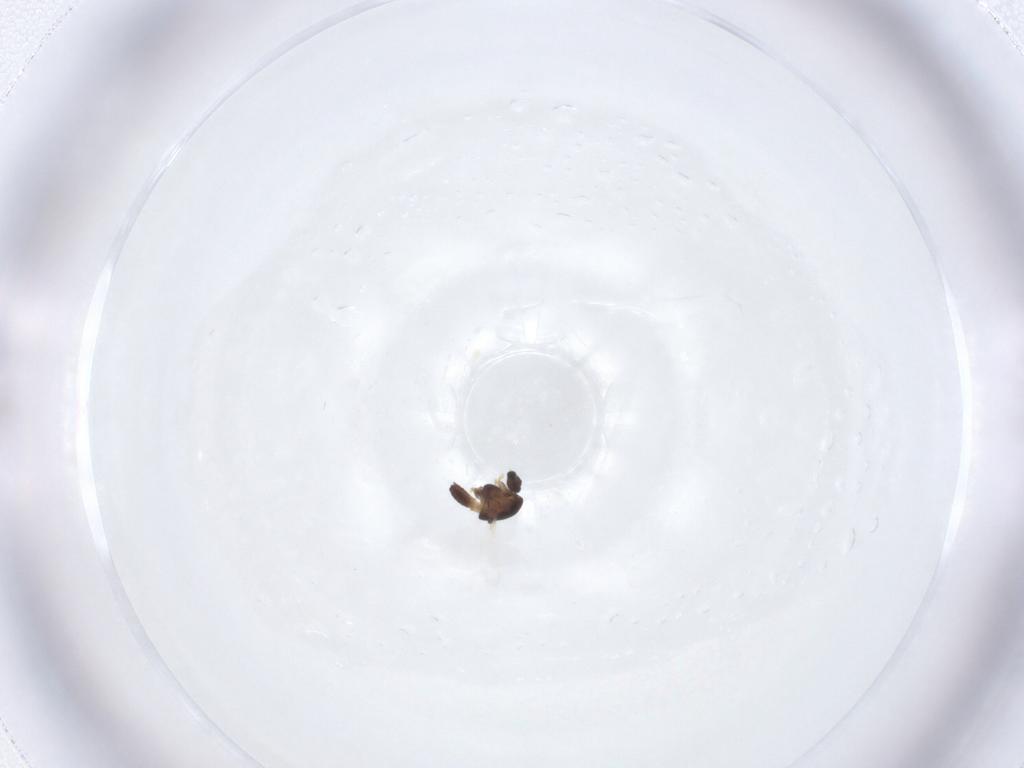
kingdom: Animalia
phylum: Arthropoda
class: Insecta
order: Diptera
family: Chironomidae
